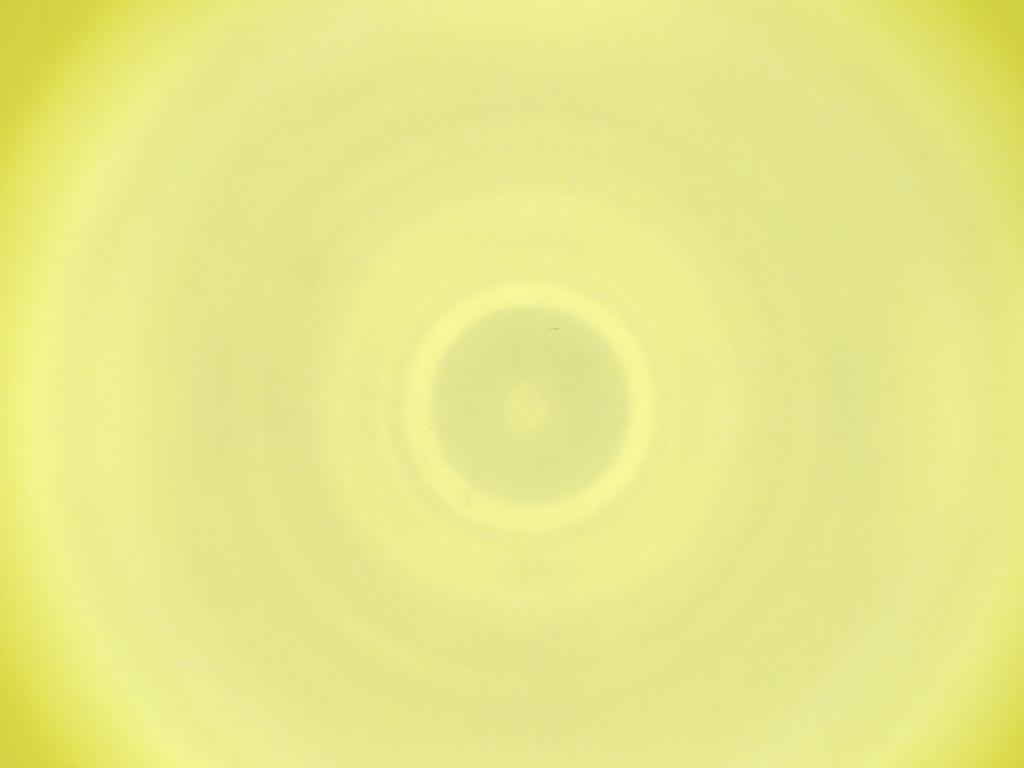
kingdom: Animalia
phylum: Arthropoda
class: Insecta
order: Diptera
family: Cecidomyiidae
